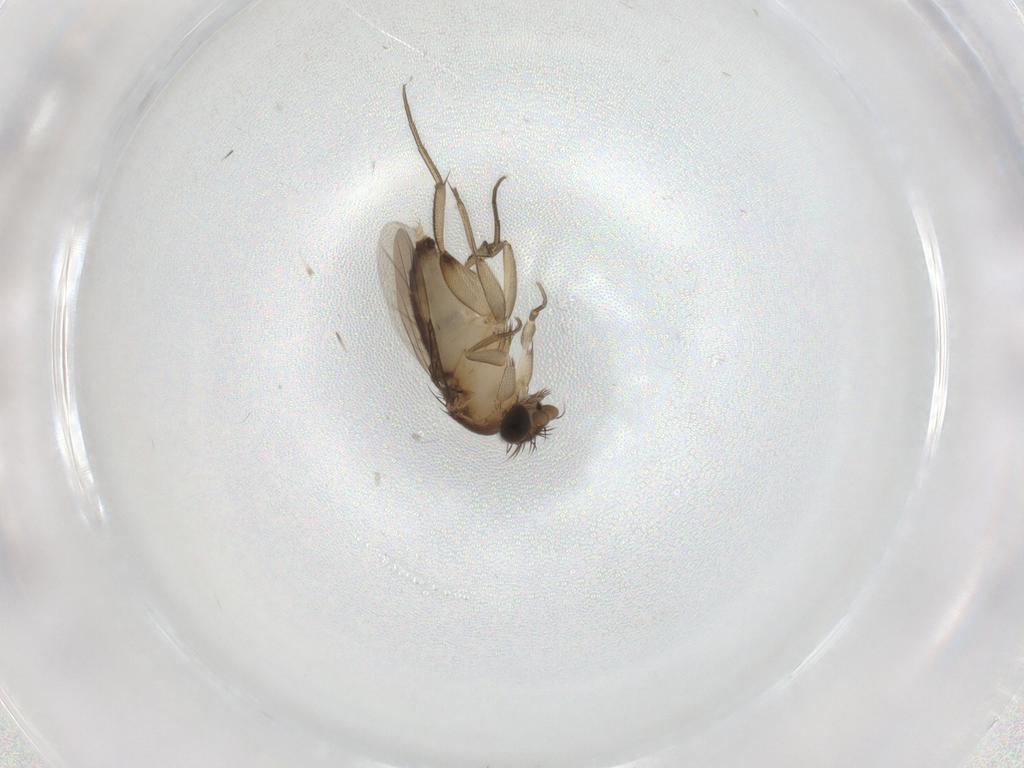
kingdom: Animalia
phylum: Arthropoda
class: Insecta
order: Diptera
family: Phoridae
